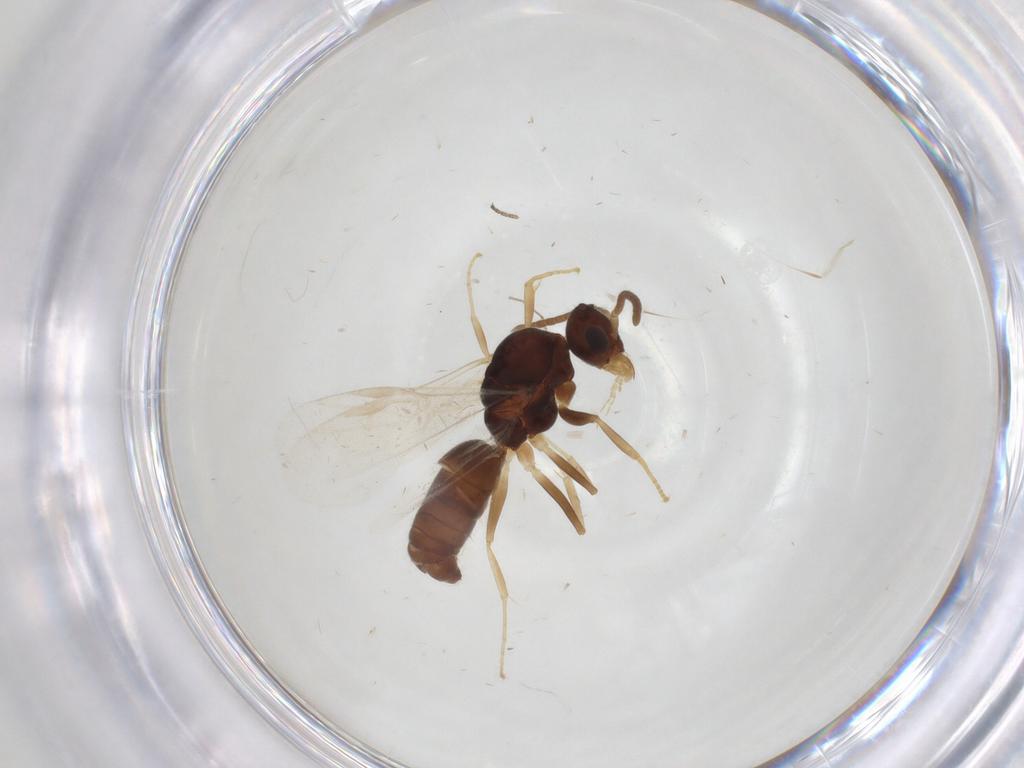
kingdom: Animalia
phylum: Arthropoda
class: Insecta
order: Hymenoptera
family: Formicidae
